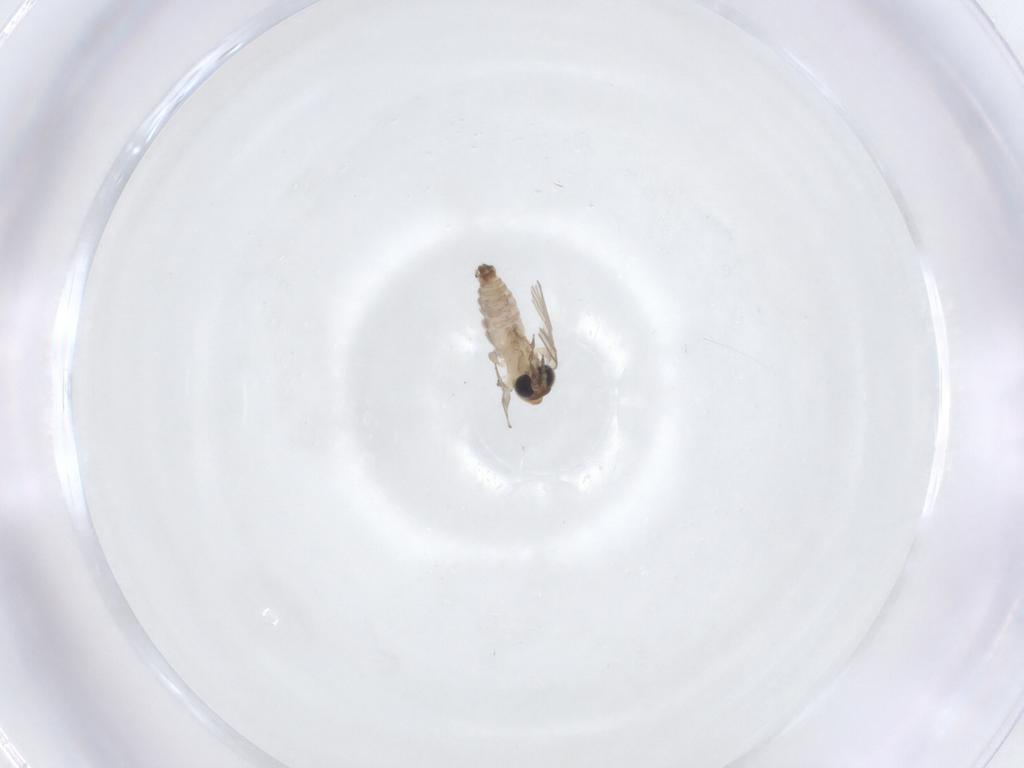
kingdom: Animalia
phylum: Arthropoda
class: Insecta
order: Diptera
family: Psychodidae
